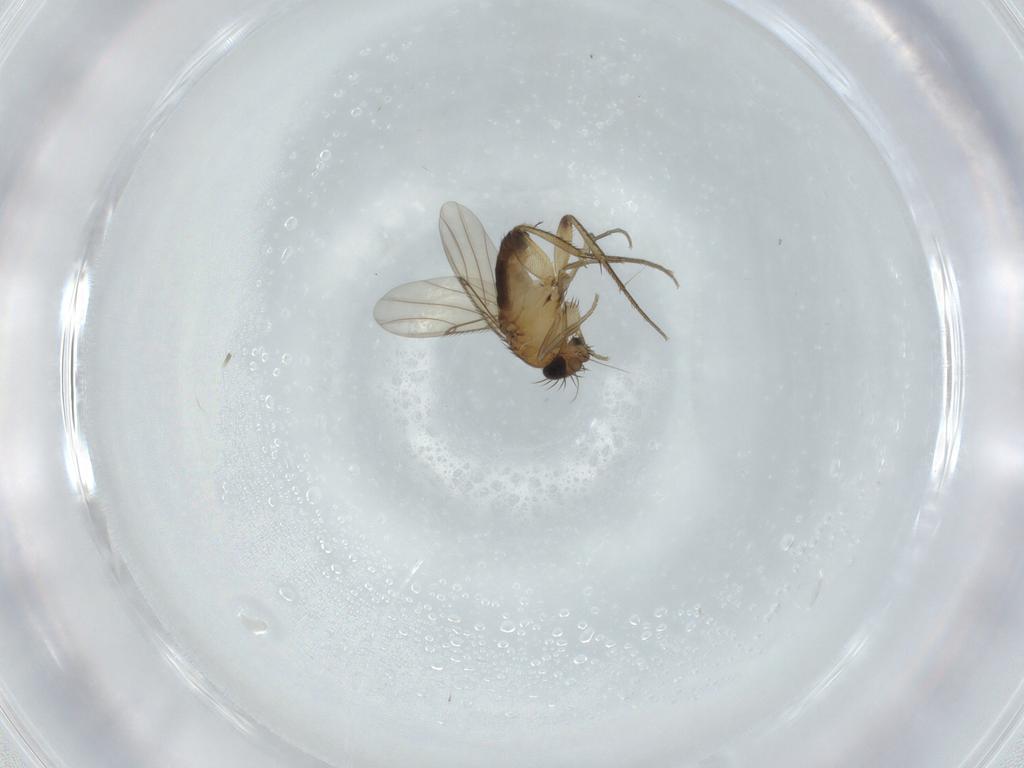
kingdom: Animalia
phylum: Arthropoda
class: Insecta
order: Diptera
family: Phoridae
